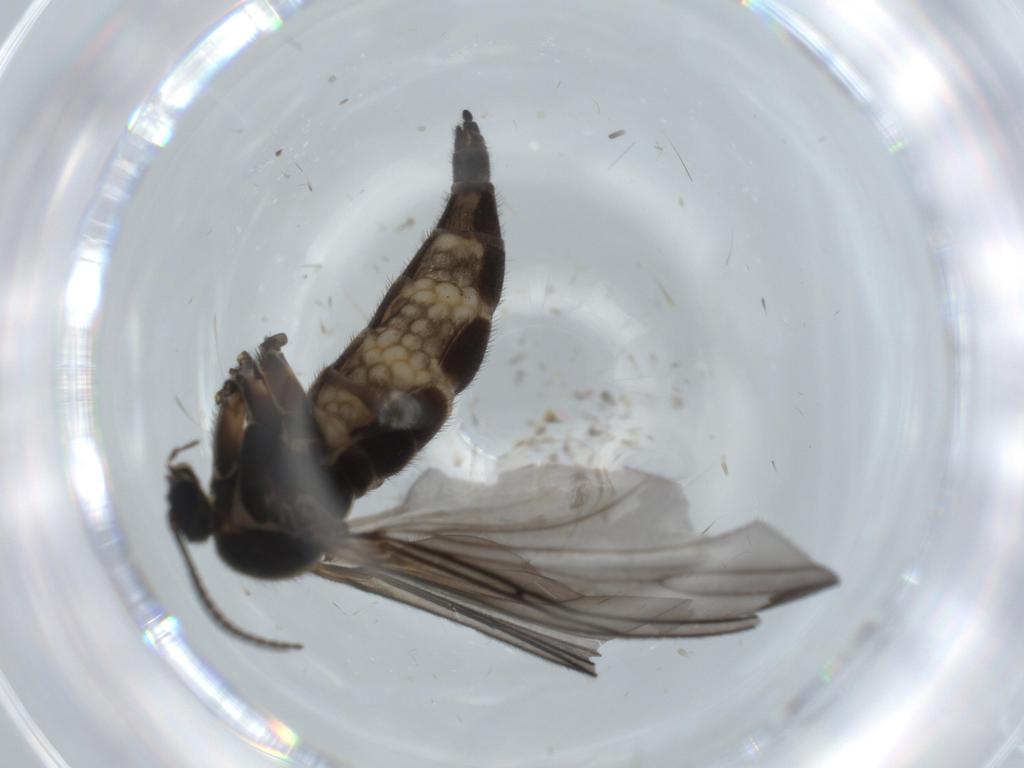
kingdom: Animalia
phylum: Arthropoda
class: Insecta
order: Diptera
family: Sciaridae
